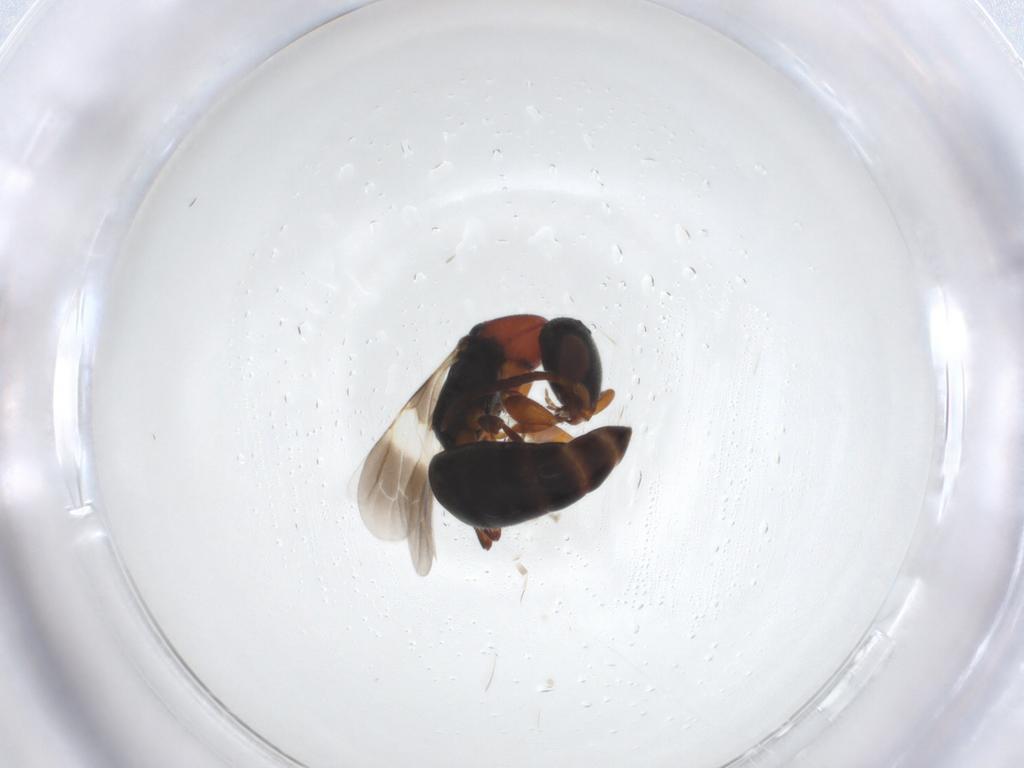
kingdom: Animalia
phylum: Arthropoda
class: Insecta
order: Hymenoptera
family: Bethylidae
